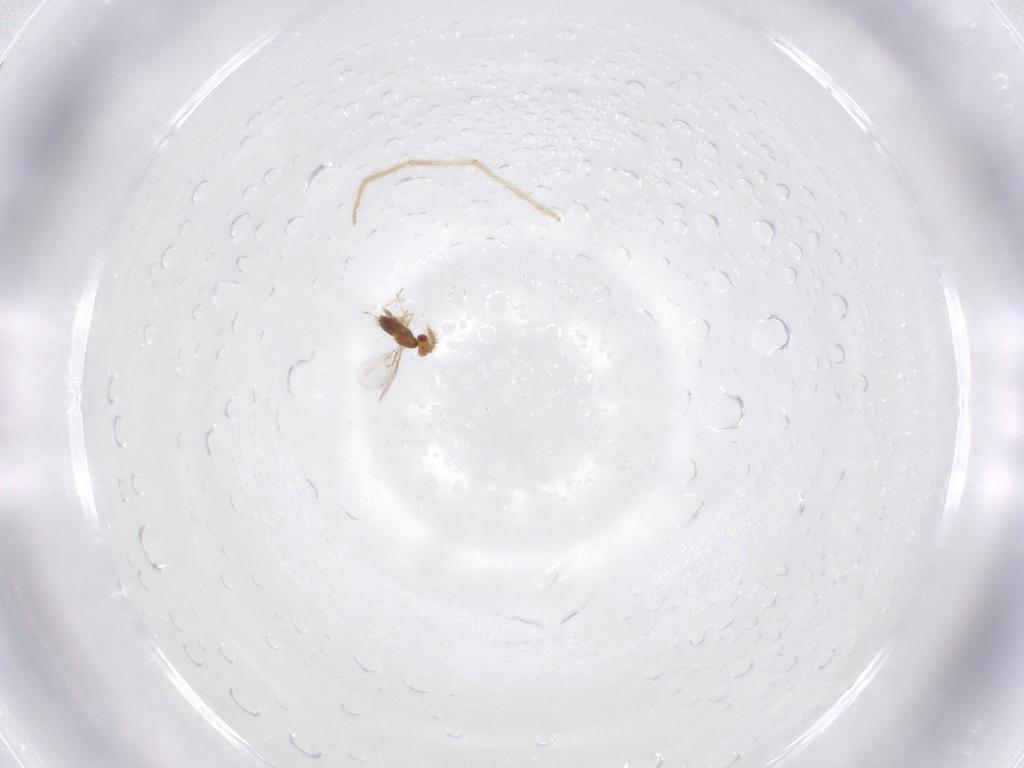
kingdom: Animalia
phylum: Arthropoda
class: Insecta
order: Hymenoptera
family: Trichogrammatidae
